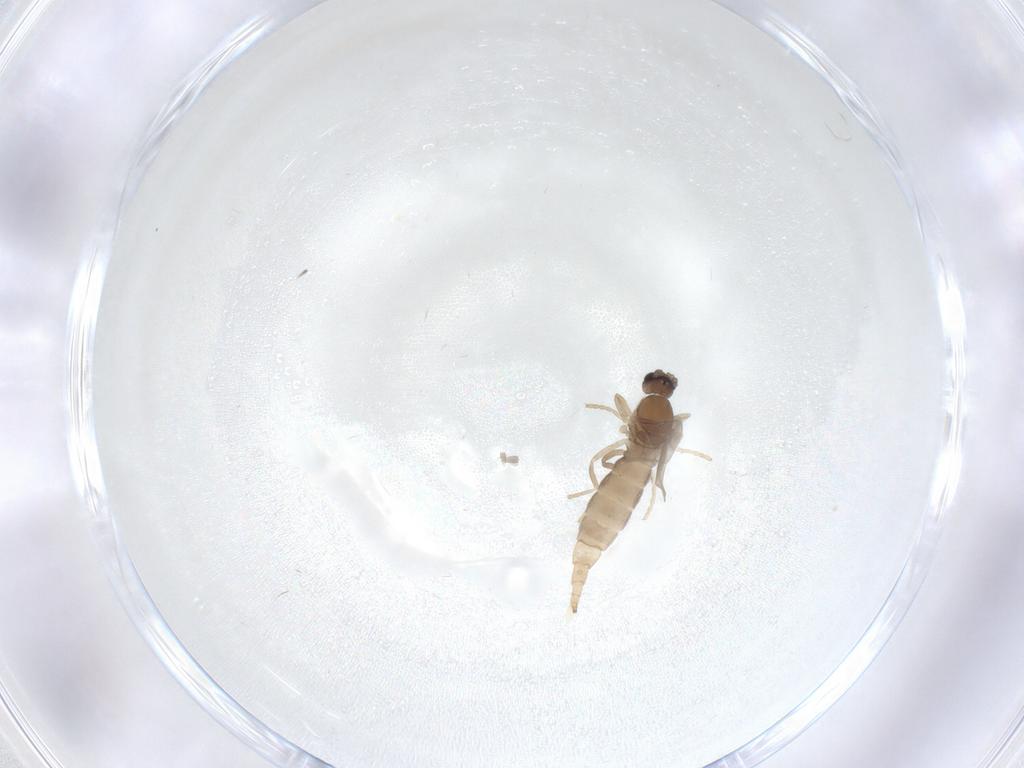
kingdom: Animalia
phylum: Arthropoda
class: Insecta
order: Diptera
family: Cecidomyiidae
